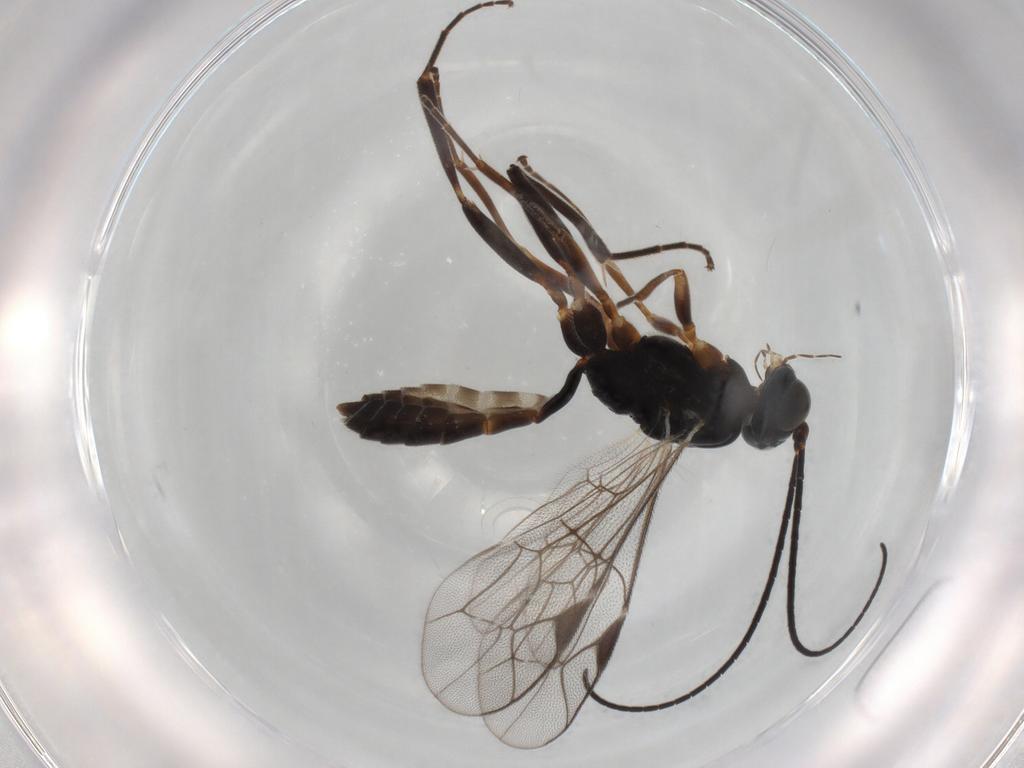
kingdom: Animalia
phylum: Arthropoda
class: Insecta
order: Hymenoptera
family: Ichneumonidae
